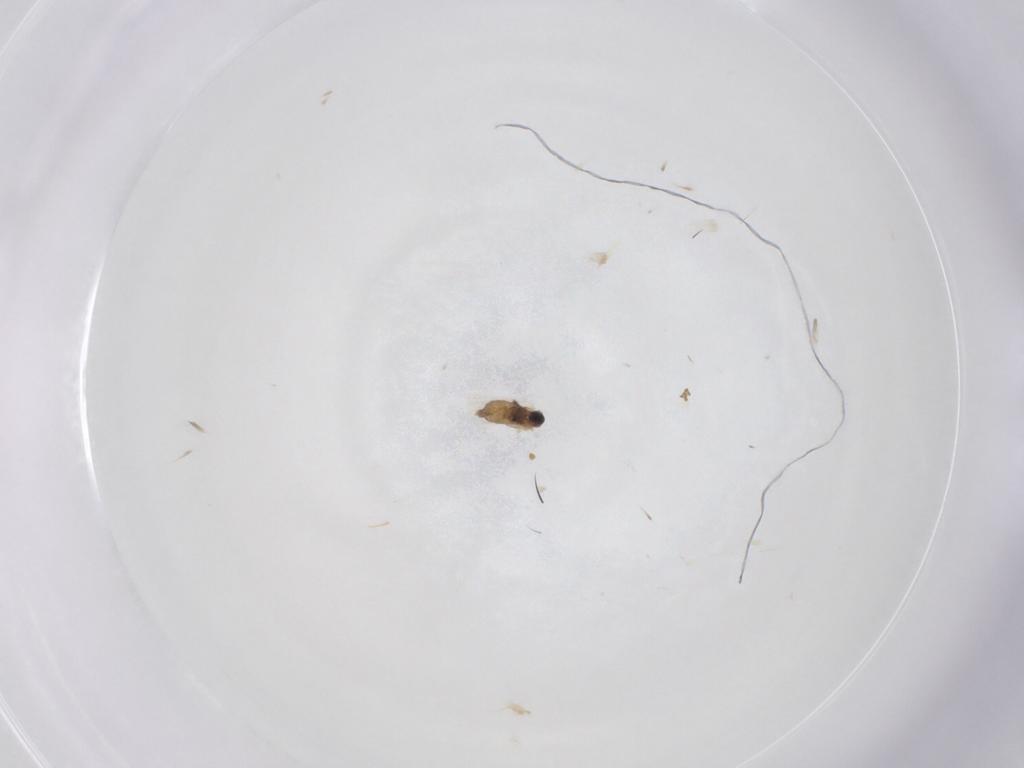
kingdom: Animalia
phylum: Arthropoda
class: Insecta
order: Diptera
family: Cecidomyiidae
